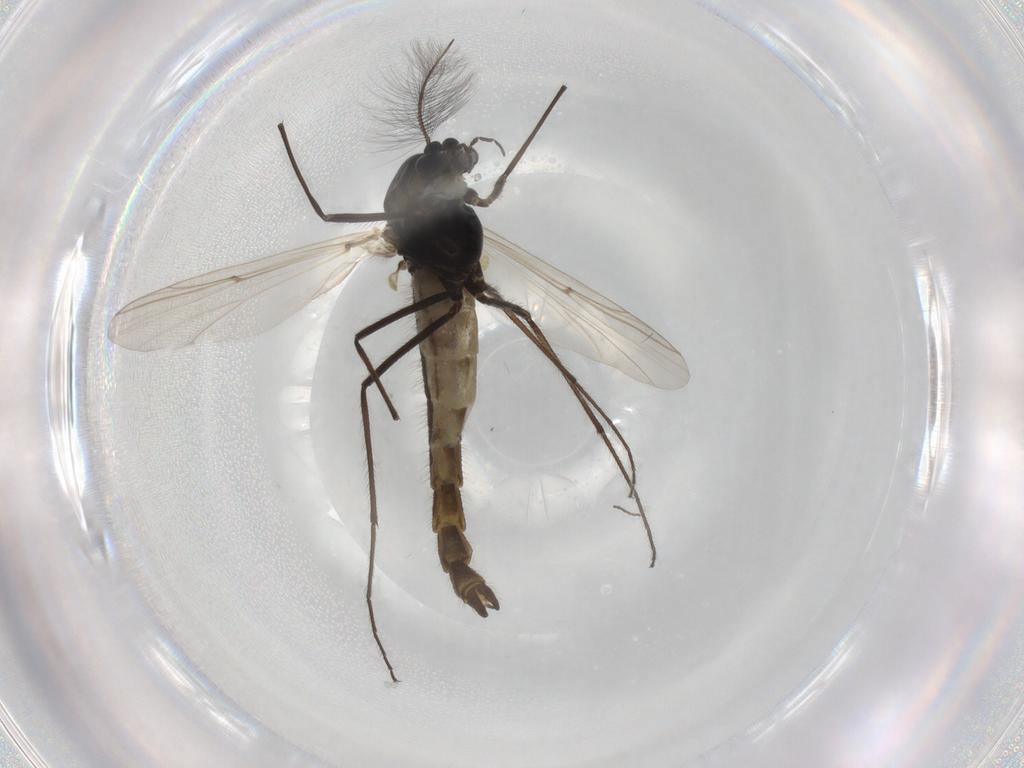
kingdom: Animalia
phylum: Arthropoda
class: Insecta
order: Diptera
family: Chironomidae
